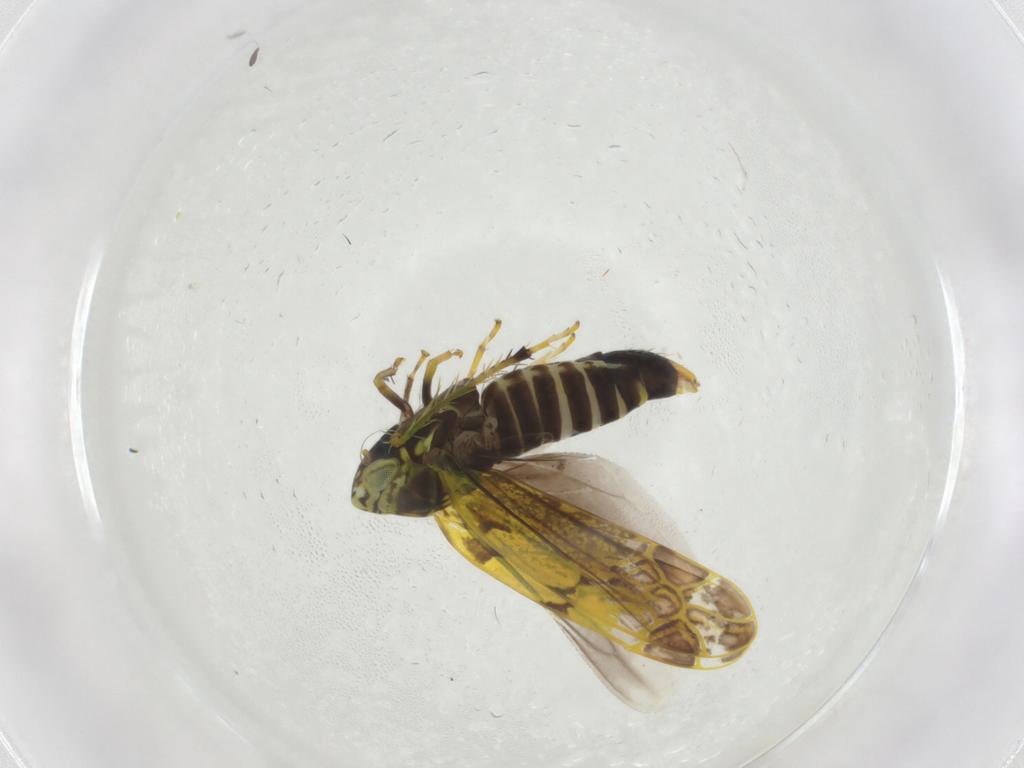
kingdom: Animalia
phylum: Arthropoda
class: Insecta
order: Hemiptera
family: Cicadellidae
